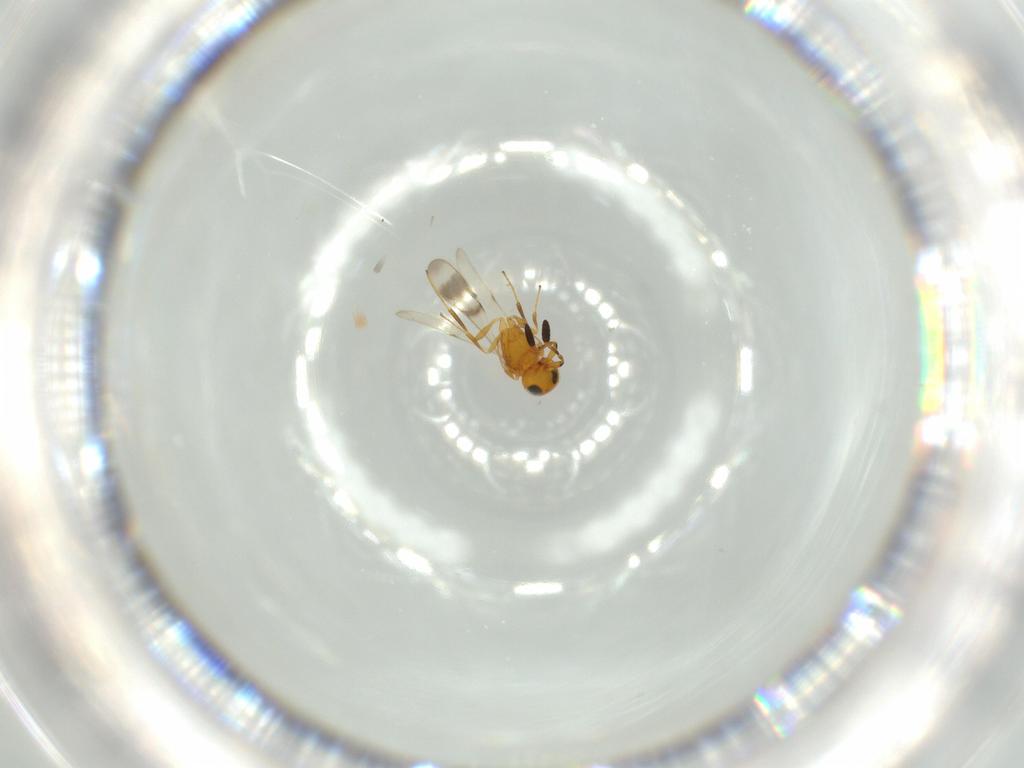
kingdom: Animalia
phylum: Arthropoda
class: Insecta
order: Hymenoptera
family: Scelionidae
